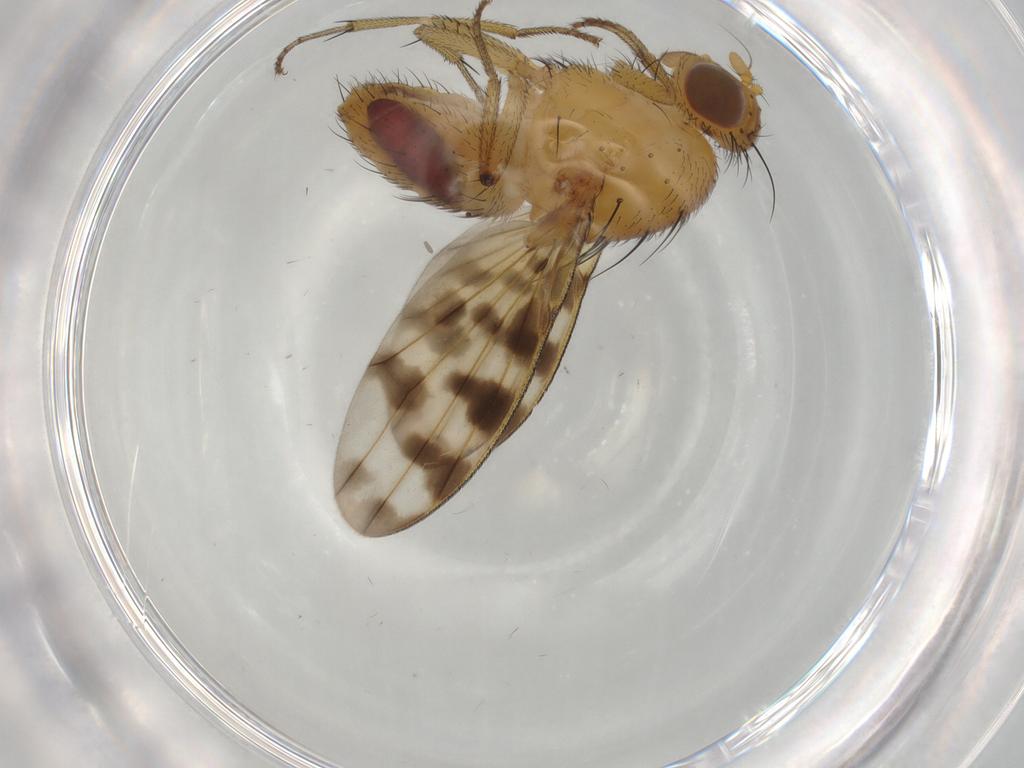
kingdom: Animalia
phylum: Arthropoda
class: Insecta
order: Diptera
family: Cecidomyiidae
